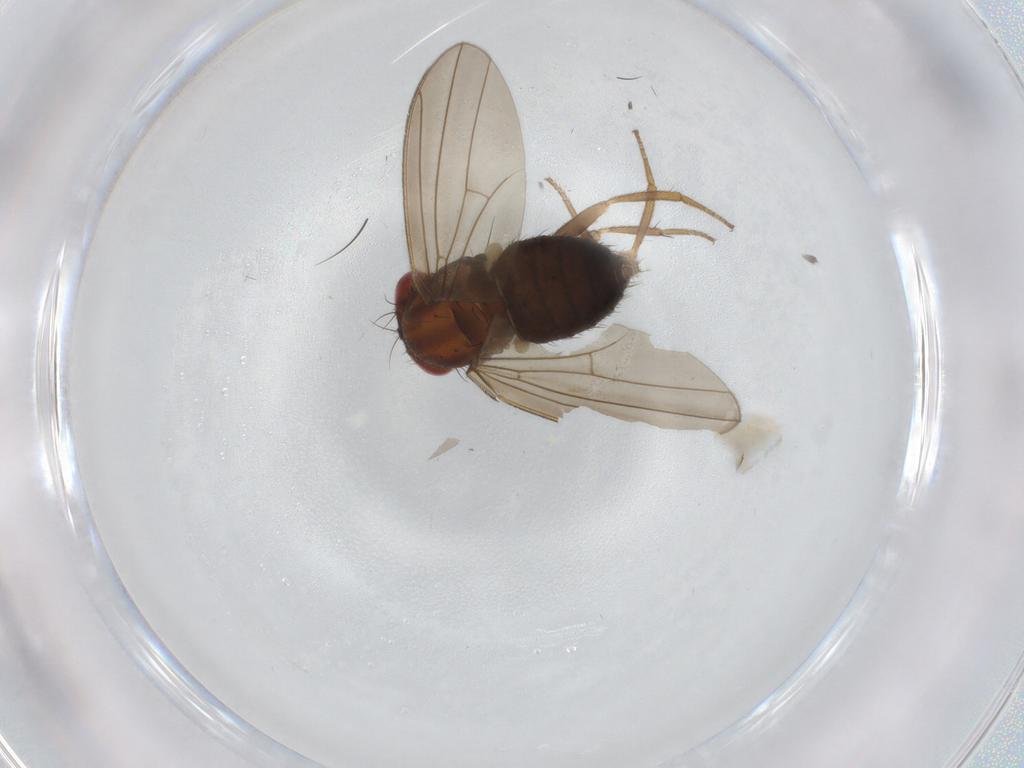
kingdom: Animalia
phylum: Arthropoda
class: Insecta
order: Diptera
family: Drosophilidae
